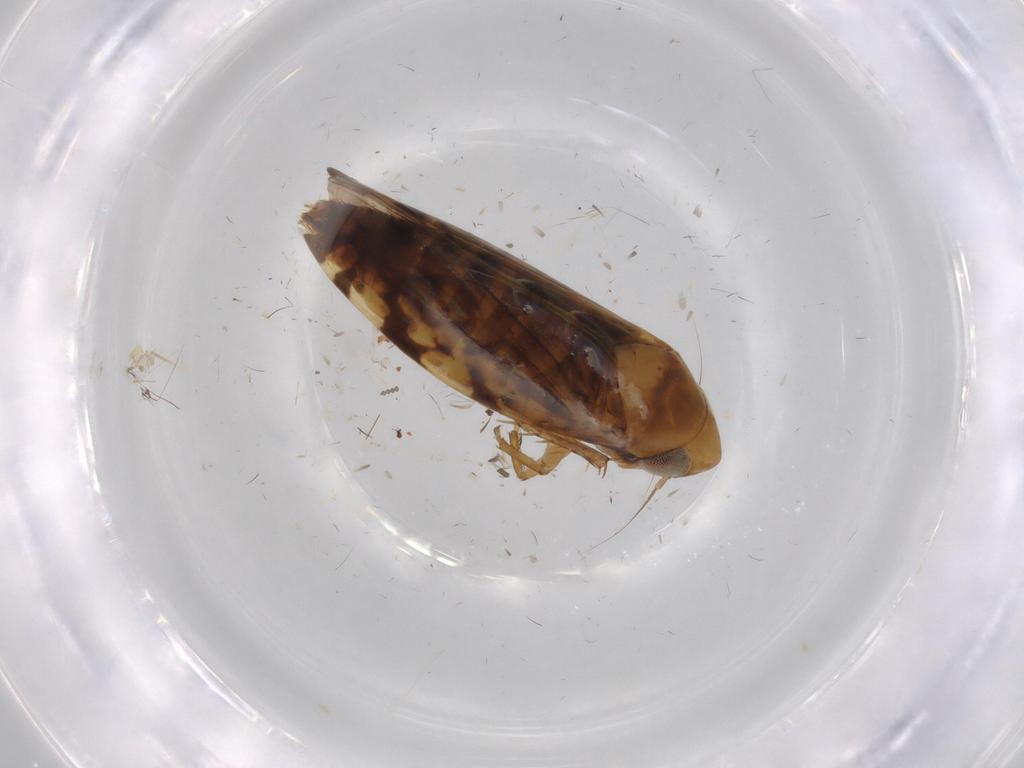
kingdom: Animalia
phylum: Arthropoda
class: Insecta
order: Hemiptera
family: Cicadellidae
